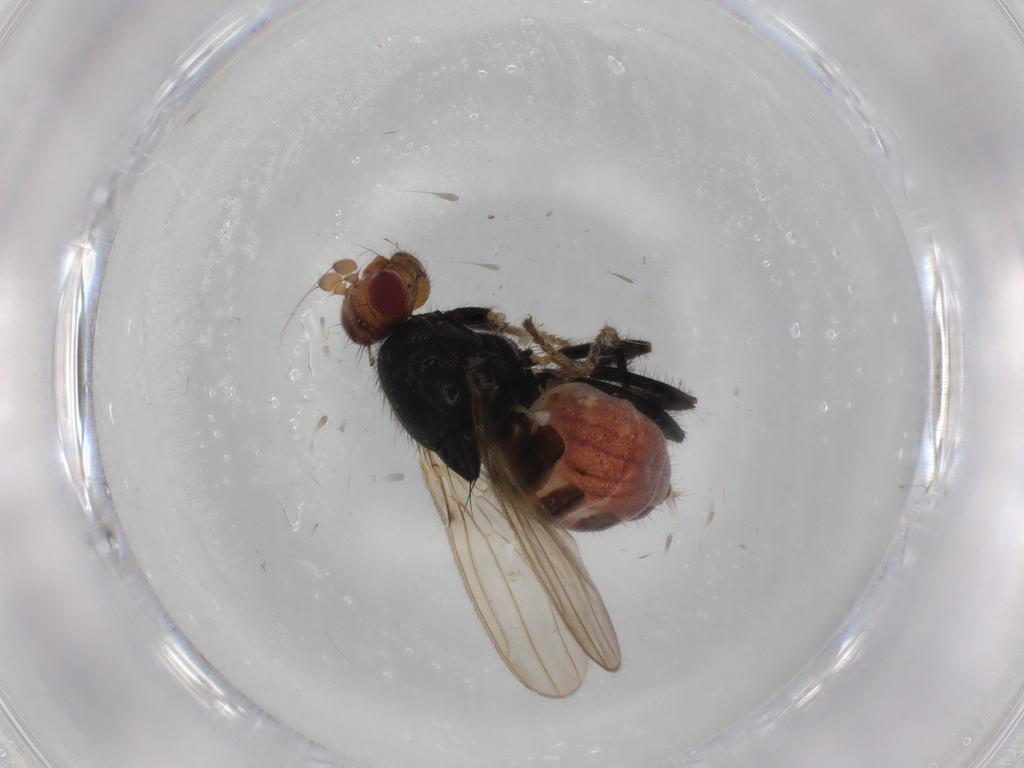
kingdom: Animalia
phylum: Arthropoda
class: Insecta
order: Diptera
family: Sphaeroceridae
